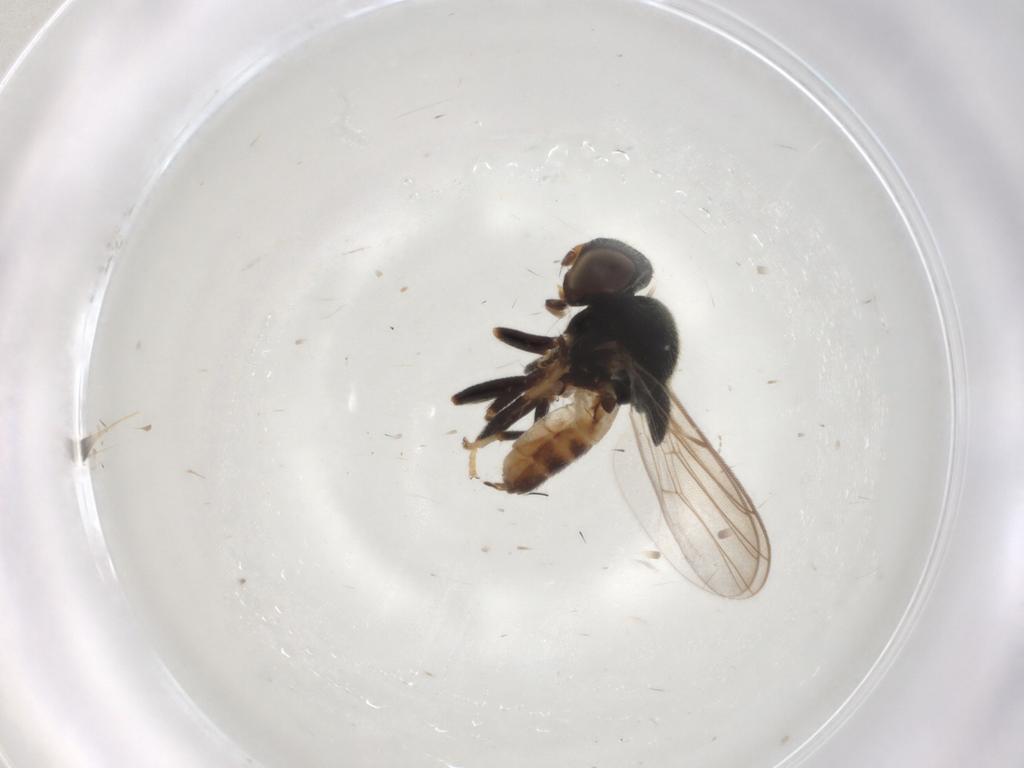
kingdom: Animalia
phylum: Arthropoda
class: Insecta
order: Diptera
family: Chloropidae
